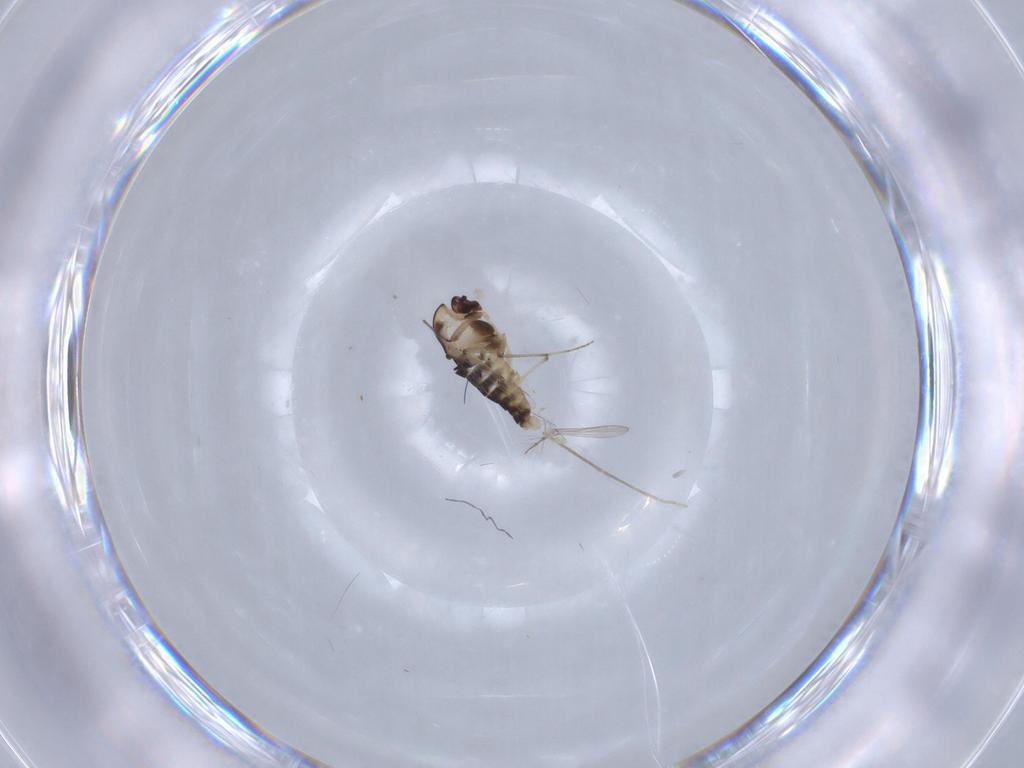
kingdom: Animalia
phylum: Arthropoda
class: Insecta
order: Diptera
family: Chironomidae
